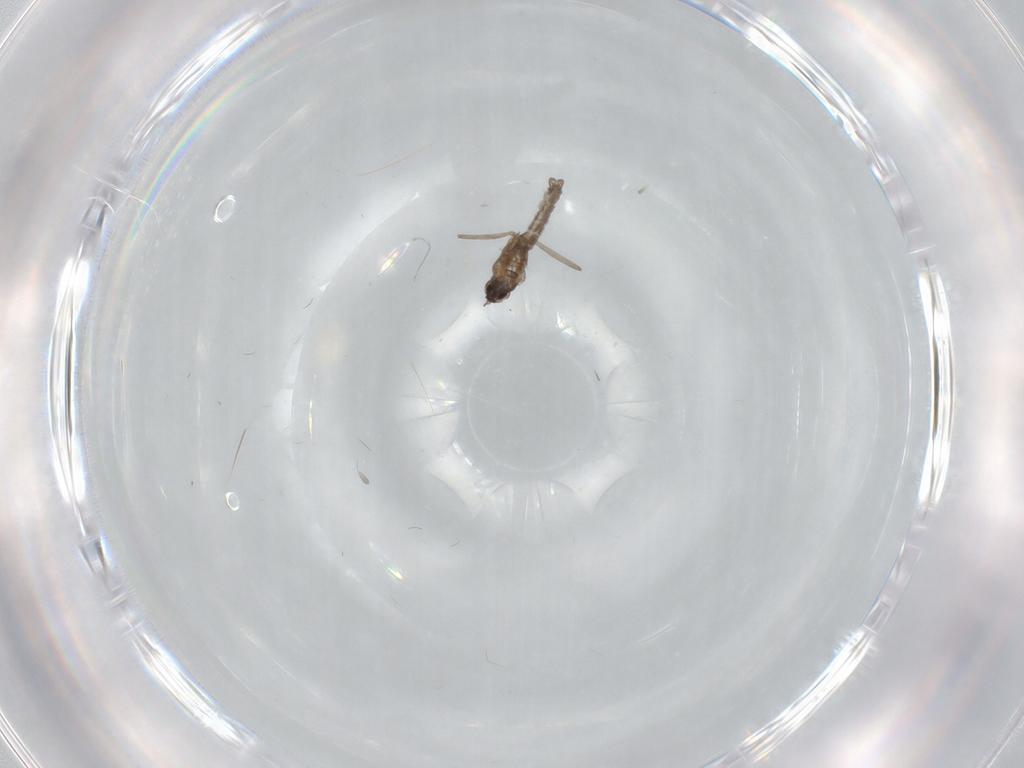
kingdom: Animalia
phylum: Arthropoda
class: Insecta
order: Diptera
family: Cecidomyiidae
